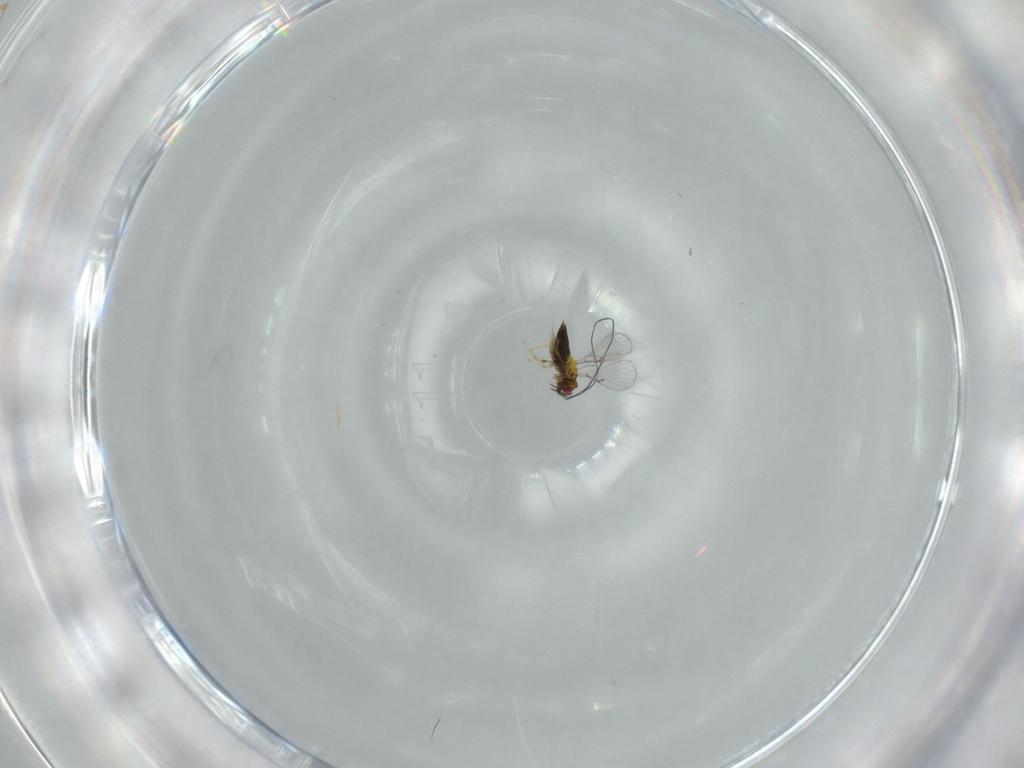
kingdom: Animalia
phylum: Arthropoda
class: Insecta
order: Hymenoptera
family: Trichogrammatidae
